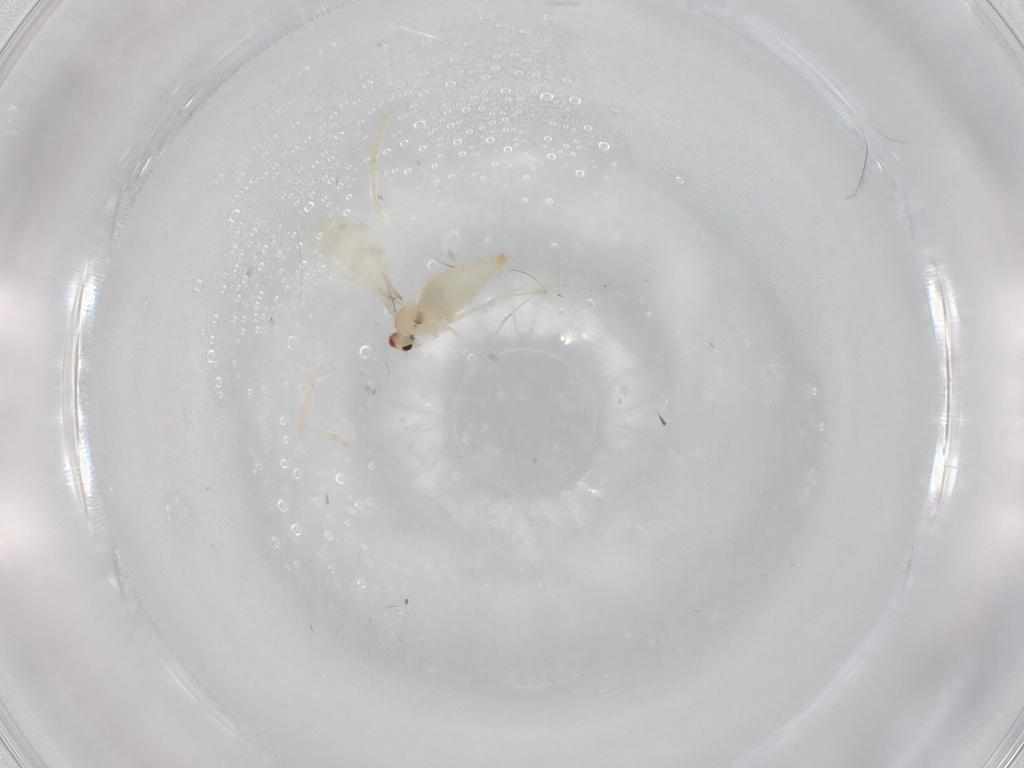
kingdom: Animalia
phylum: Arthropoda
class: Insecta
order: Diptera
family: Cecidomyiidae
